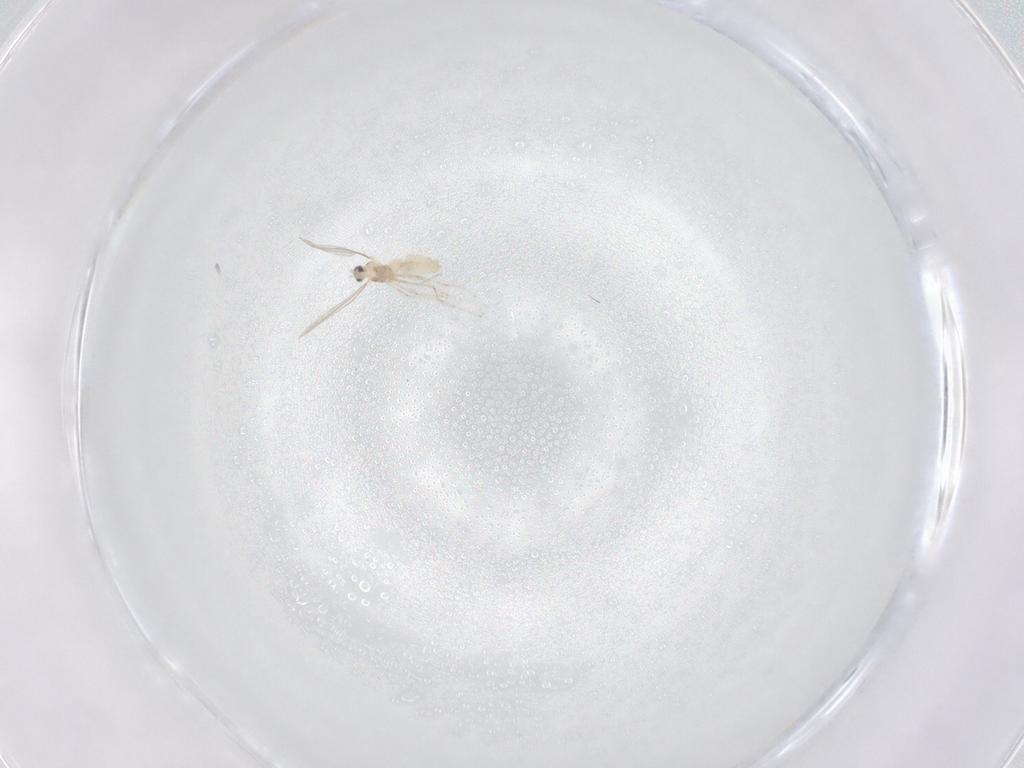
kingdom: Animalia
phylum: Arthropoda
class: Insecta
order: Diptera
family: Cecidomyiidae
